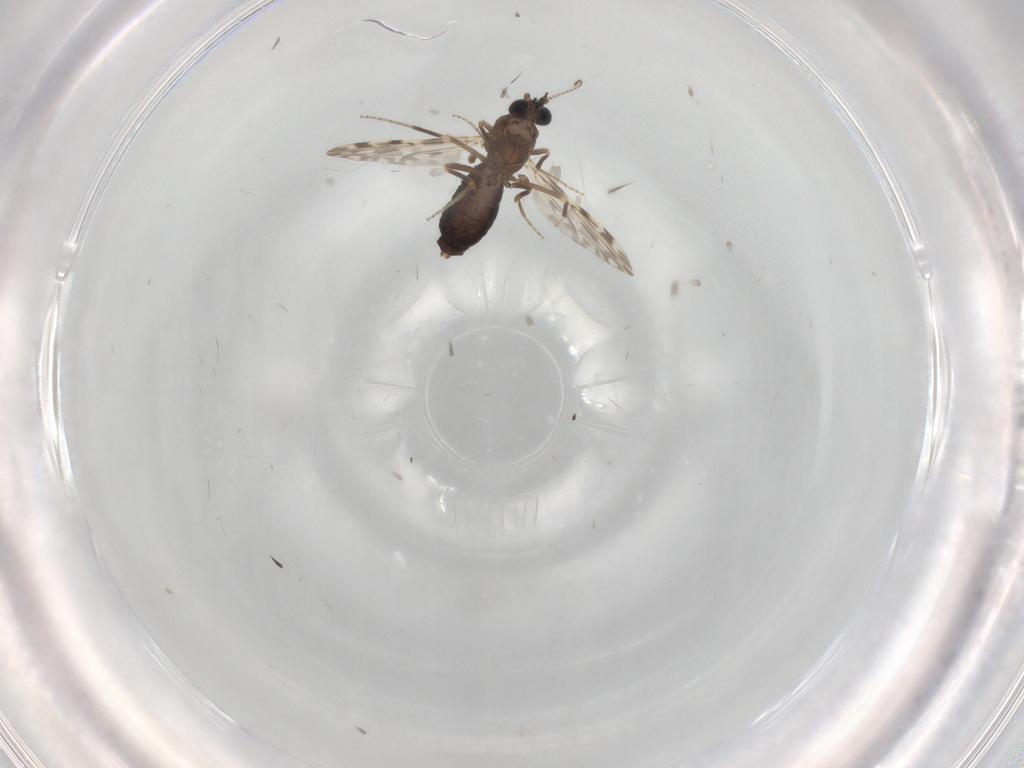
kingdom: Animalia
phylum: Arthropoda
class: Insecta
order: Diptera
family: Ceratopogonidae
